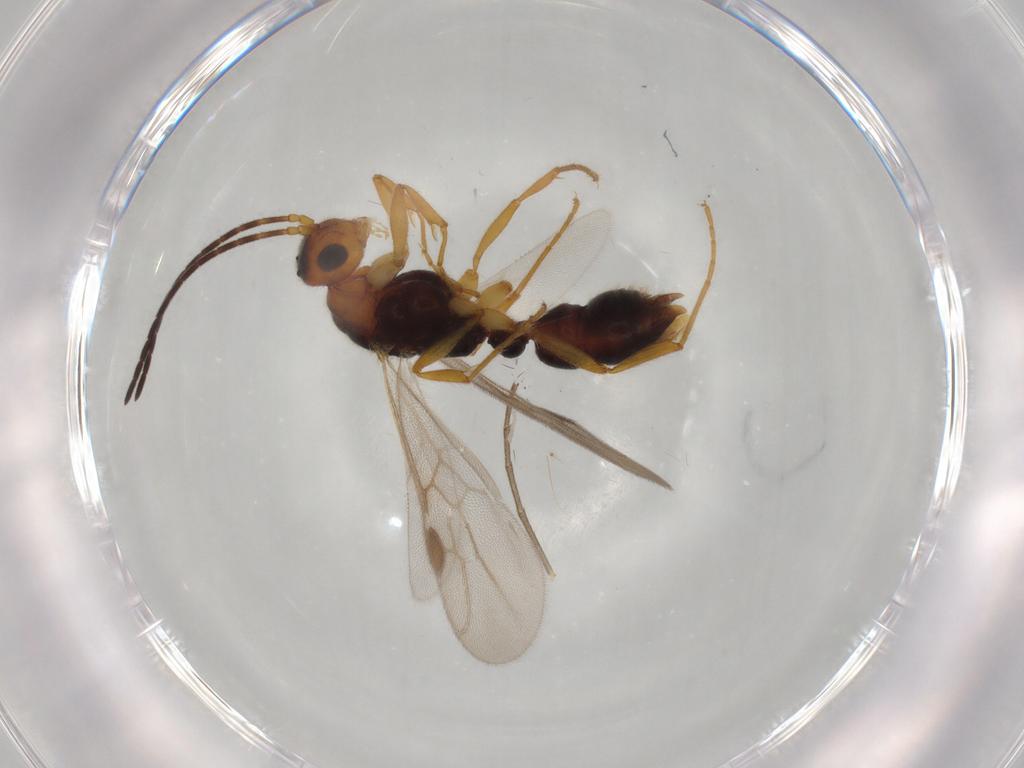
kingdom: Animalia
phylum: Arthropoda
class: Insecta
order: Hymenoptera
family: Formicidae
